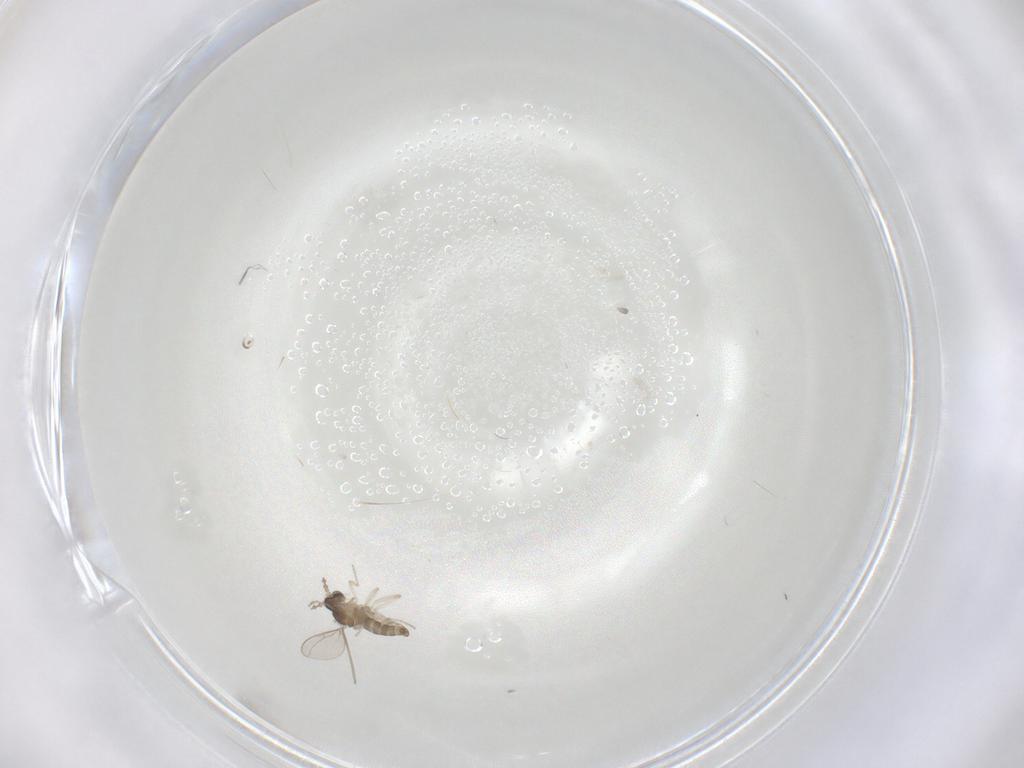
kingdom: Animalia
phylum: Arthropoda
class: Insecta
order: Diptera
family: Cecidomyiidae
